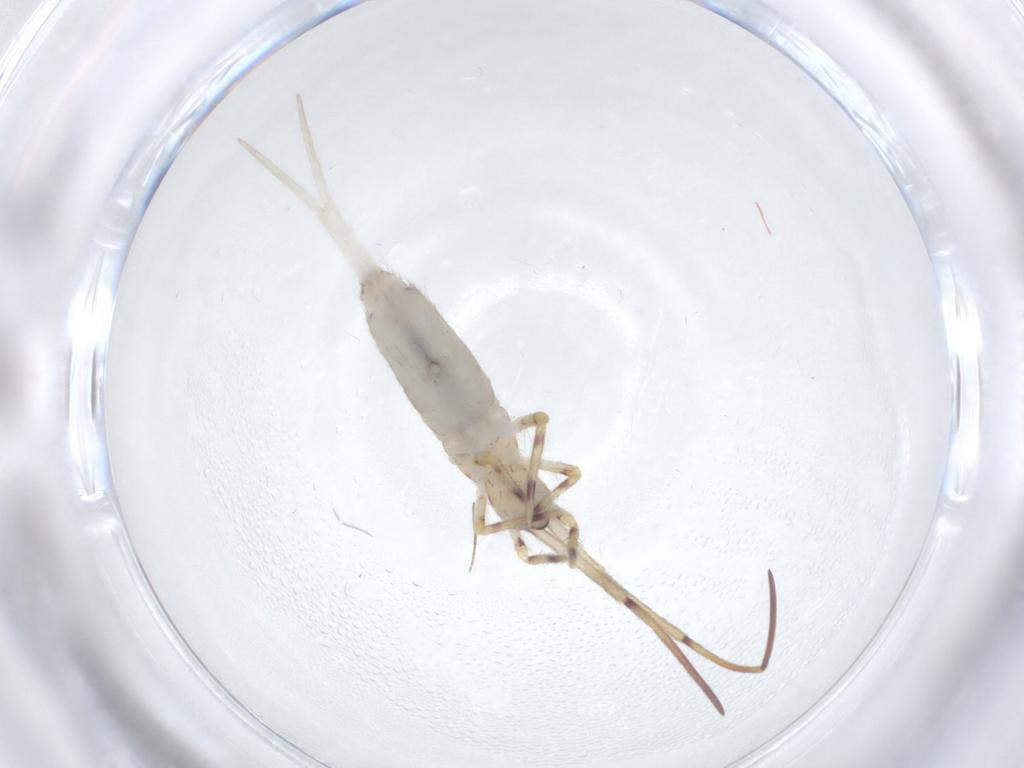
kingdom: Animalia
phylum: Arthropoda
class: Collembola
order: Entomobryomorpha
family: Entomobryidae
